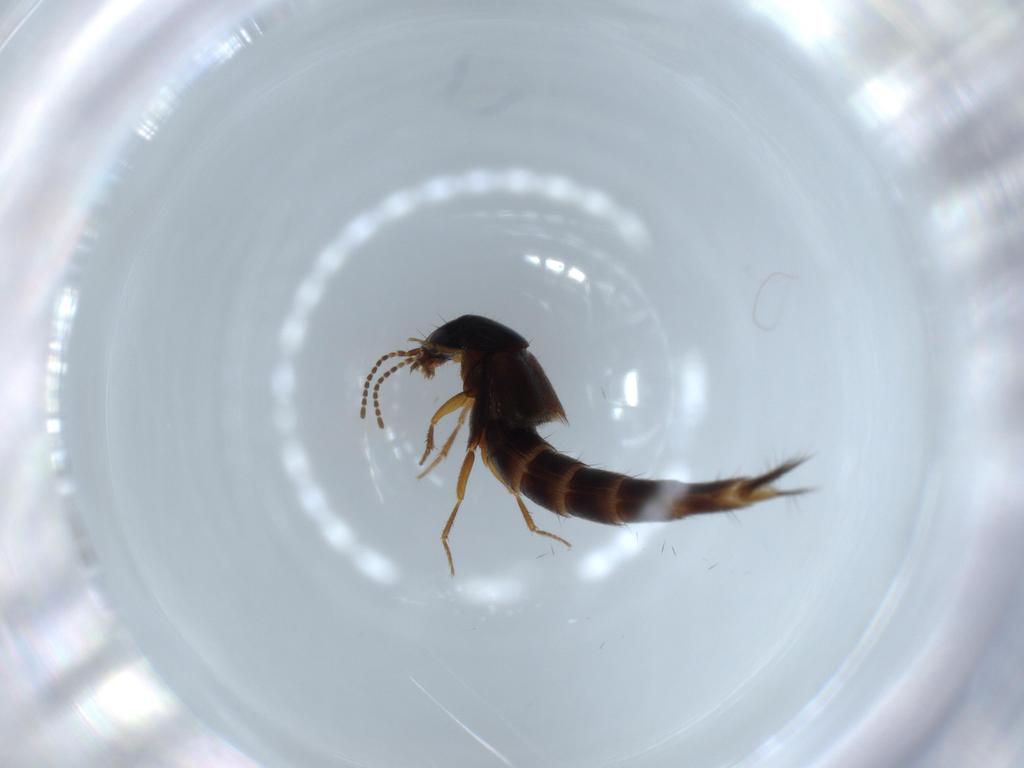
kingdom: Animalia
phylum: Arthropoda
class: Insecta
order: Coleoptera
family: Staphylinidae
